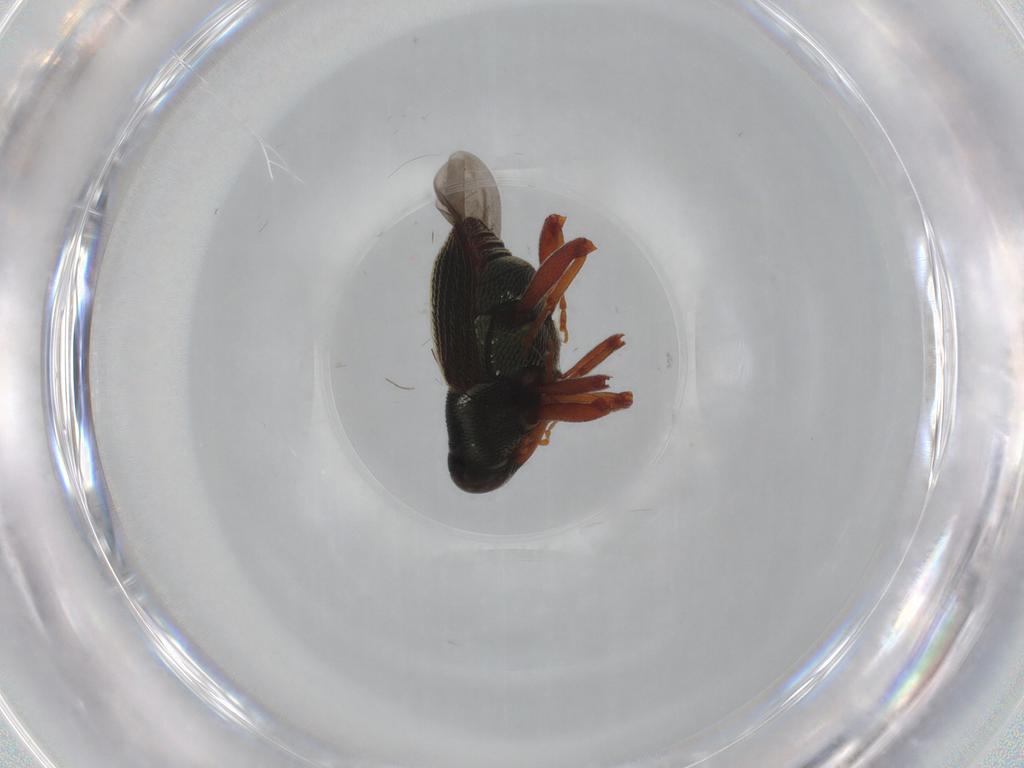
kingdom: Animalia
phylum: Arthropoda
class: Insecta
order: Coleoptera
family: Curculionidae
